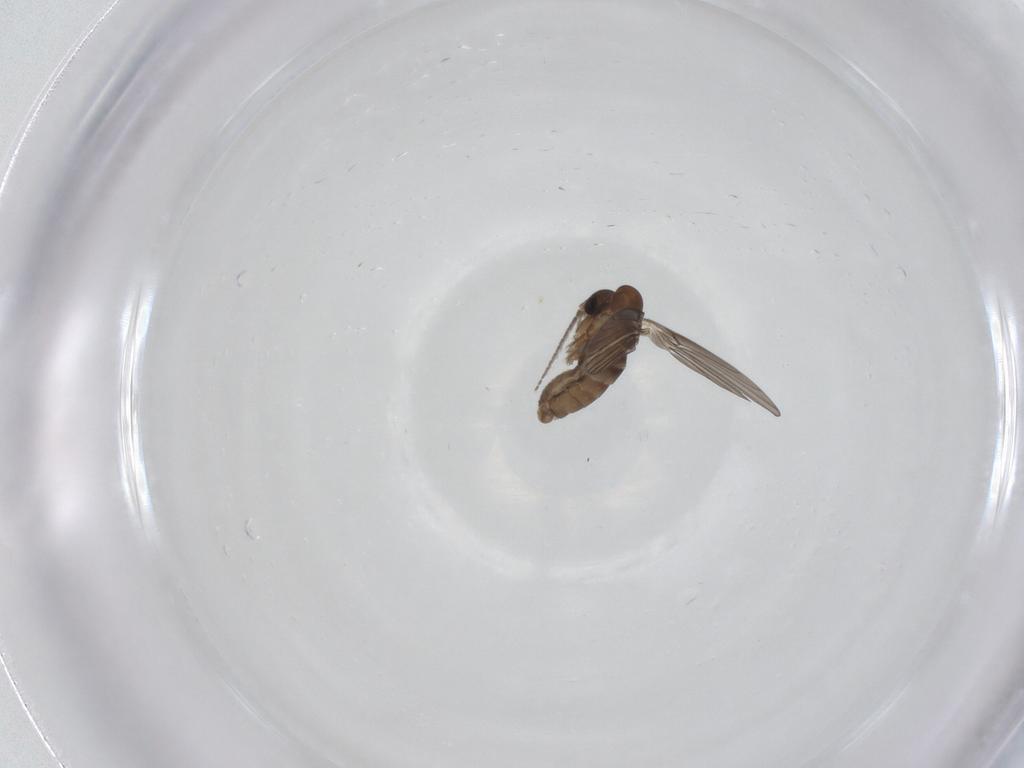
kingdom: Animalia
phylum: Arthropoda
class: Insecta
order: Diptera
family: Psychodidae
